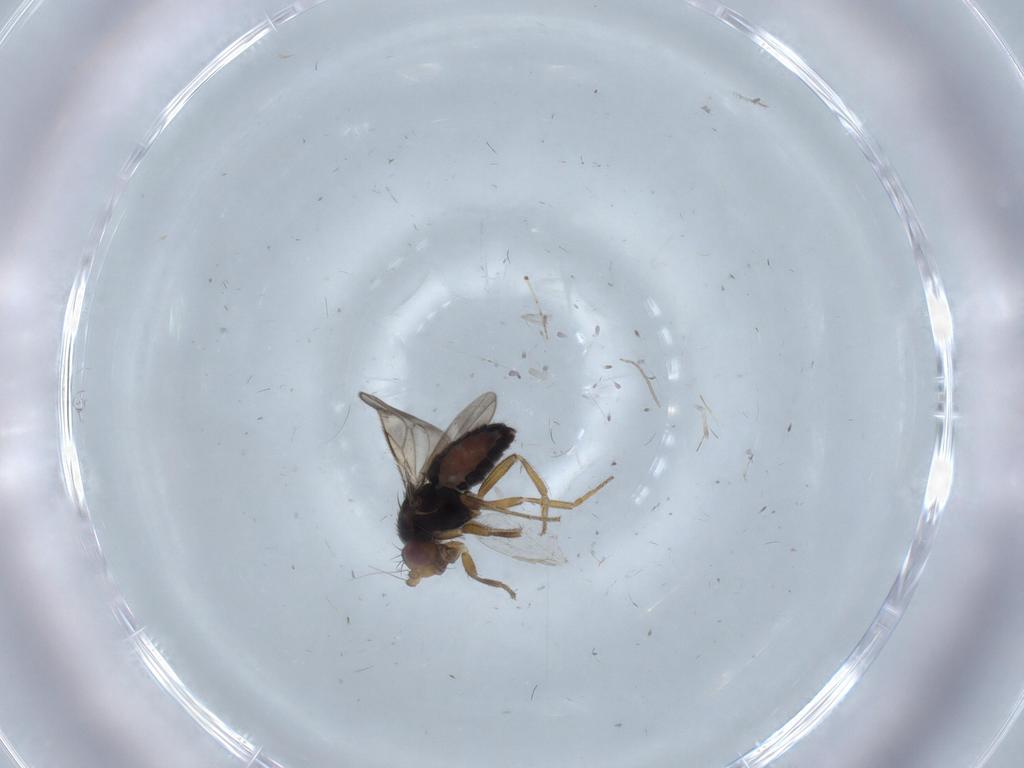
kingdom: Animalia
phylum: Arthropoda
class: Insecta
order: Diptera
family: Sphaeroceridae
